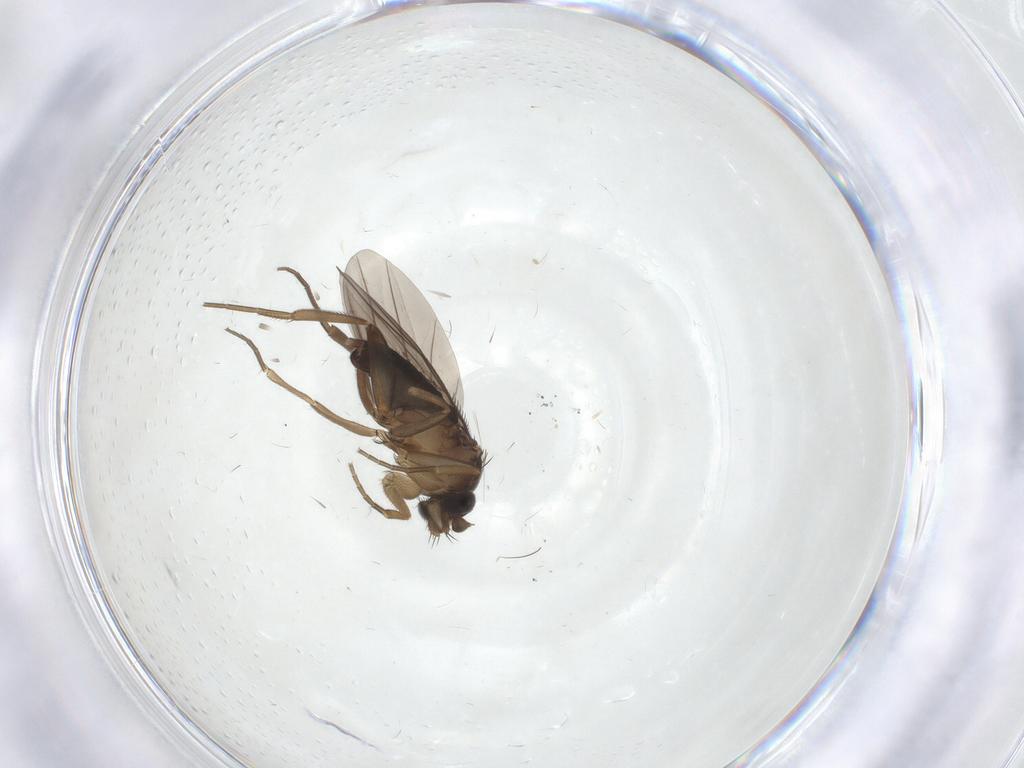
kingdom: Animalia
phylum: Arthropoda
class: Insecta
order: Diptera
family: Phoridae
